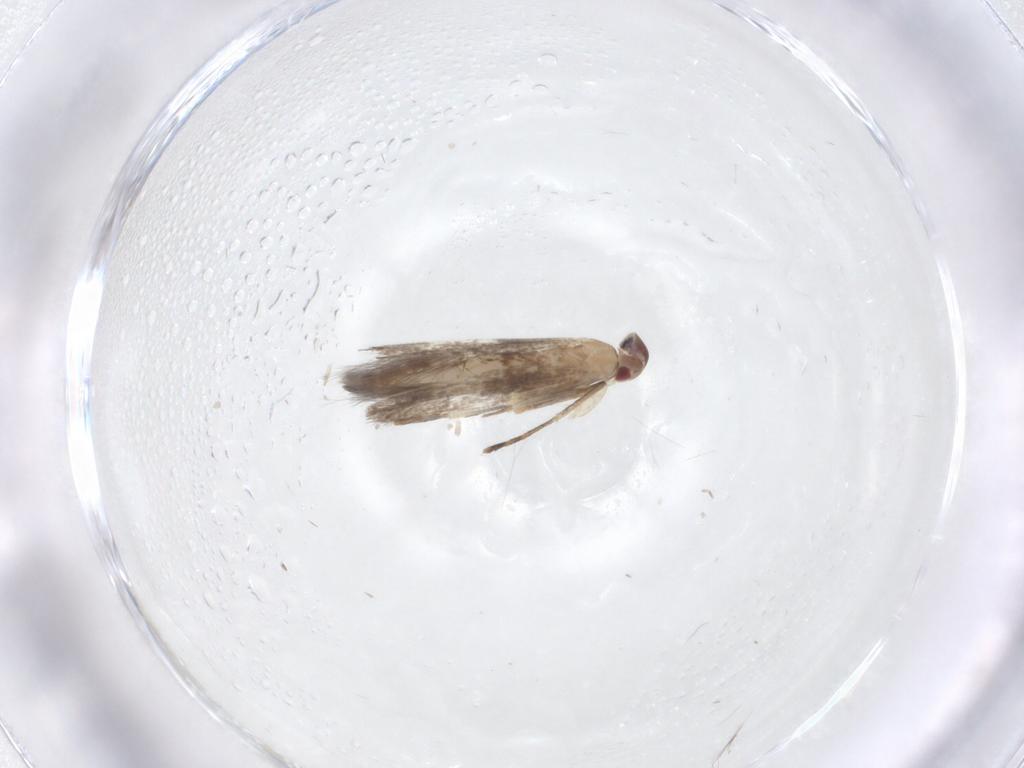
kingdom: Animalia
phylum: Arthropoda
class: Insecta
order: Lepidoptera
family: Cosmopterigidae
